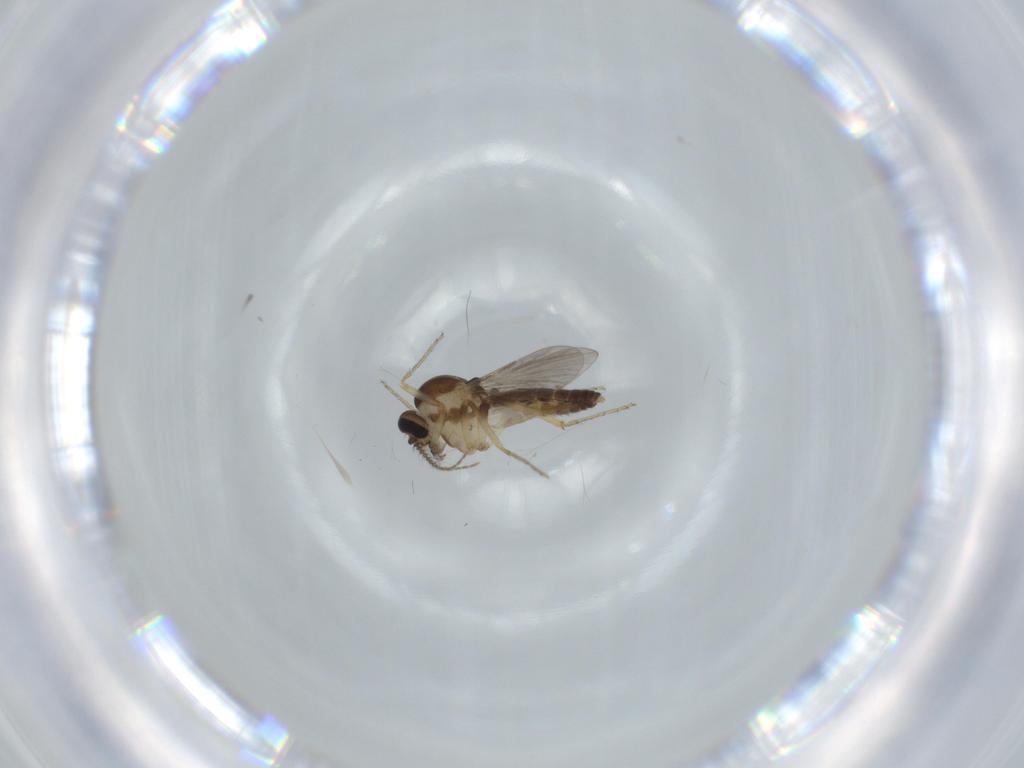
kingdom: Animalia
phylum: Arthropoda
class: Insecta
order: Diptera
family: Ceratopogonidae
